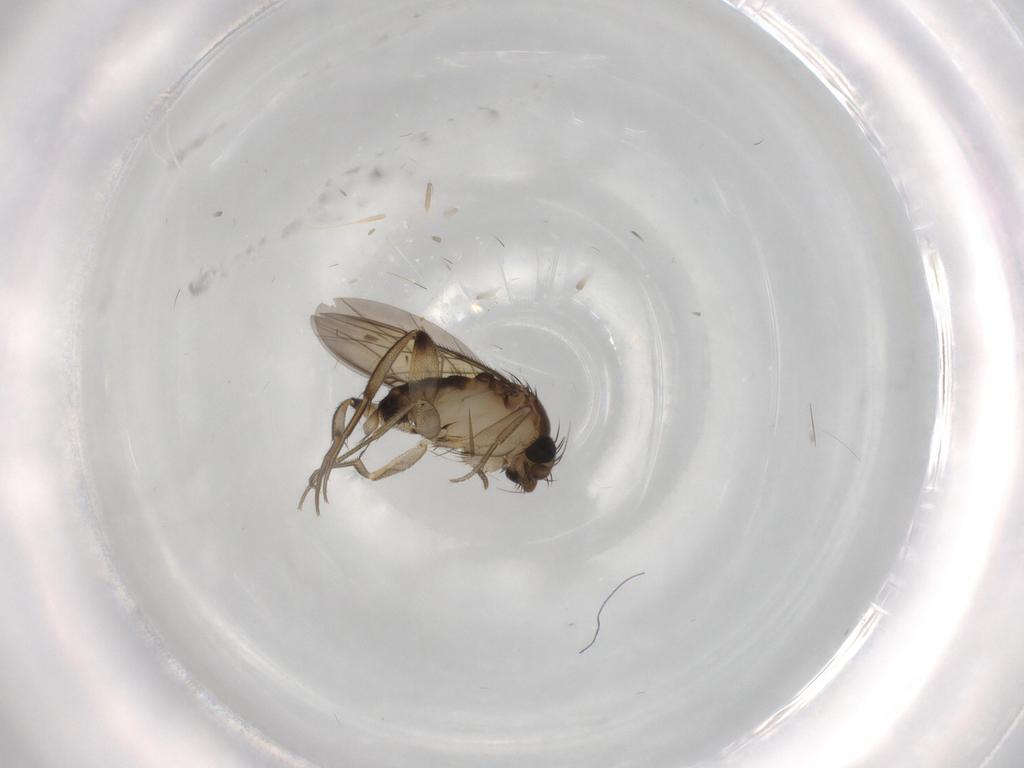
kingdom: Animalia
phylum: Arthropoda
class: Insecta
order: Diptera
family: Phoridae
